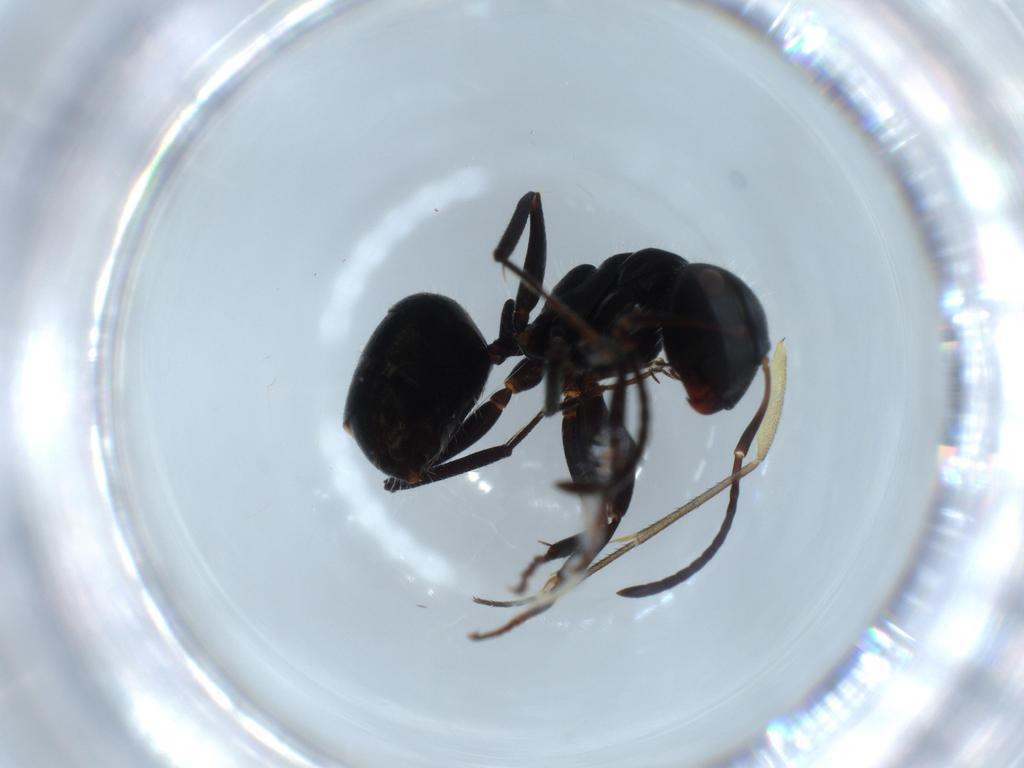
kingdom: Animalia
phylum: Arthropoda
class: Insecta
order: Hymenoptera
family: Formicidae
